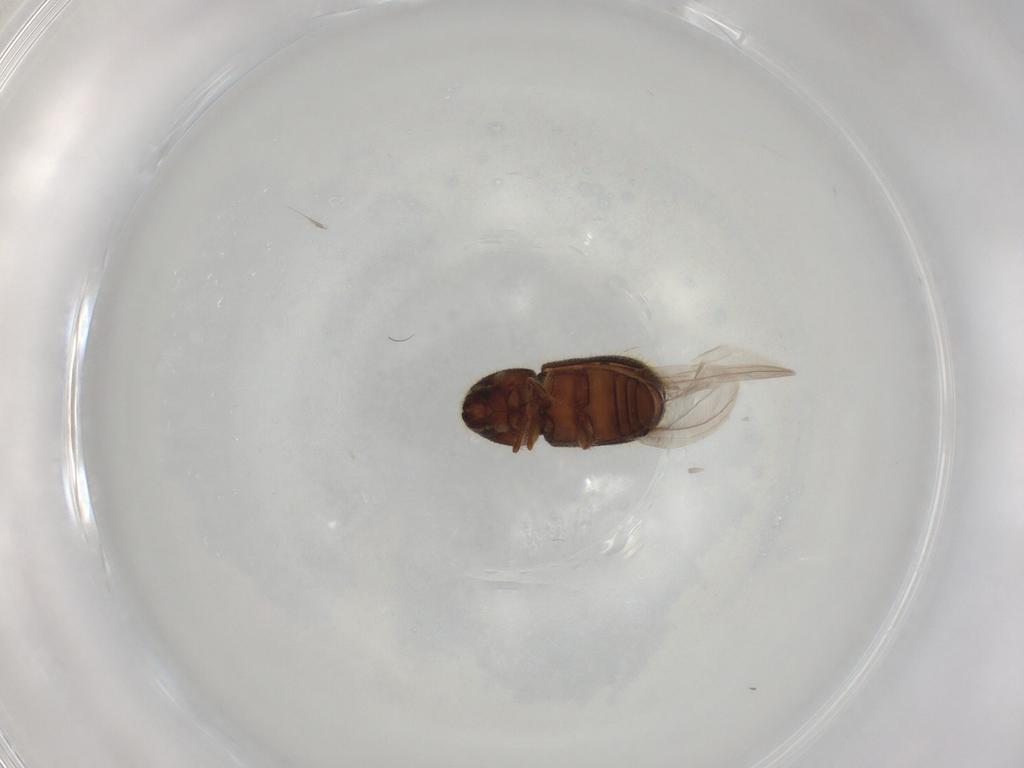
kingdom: Animalia
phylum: Arthropoda
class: Insecta
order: Coleoptera
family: Curculionidae
